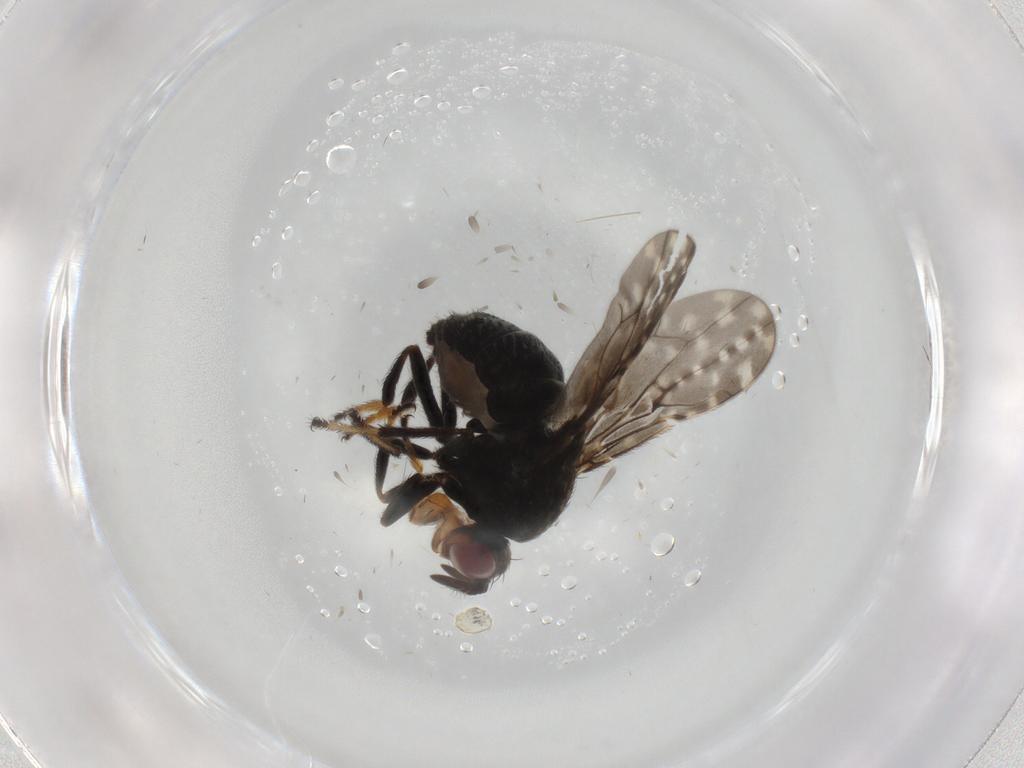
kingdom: Animalia
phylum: Arthropoda
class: Insecta
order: Diptera
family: Ephydridae
